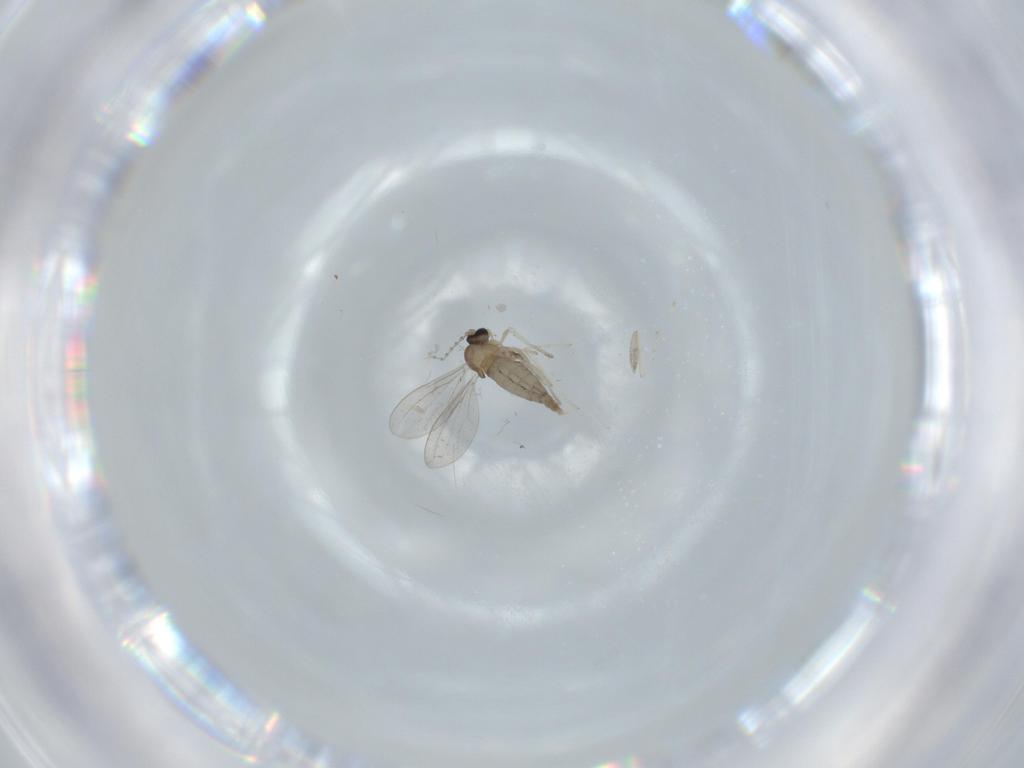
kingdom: Animalia
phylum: Arthropoda
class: Insecta
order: Diptera
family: Cecidomyiidae
